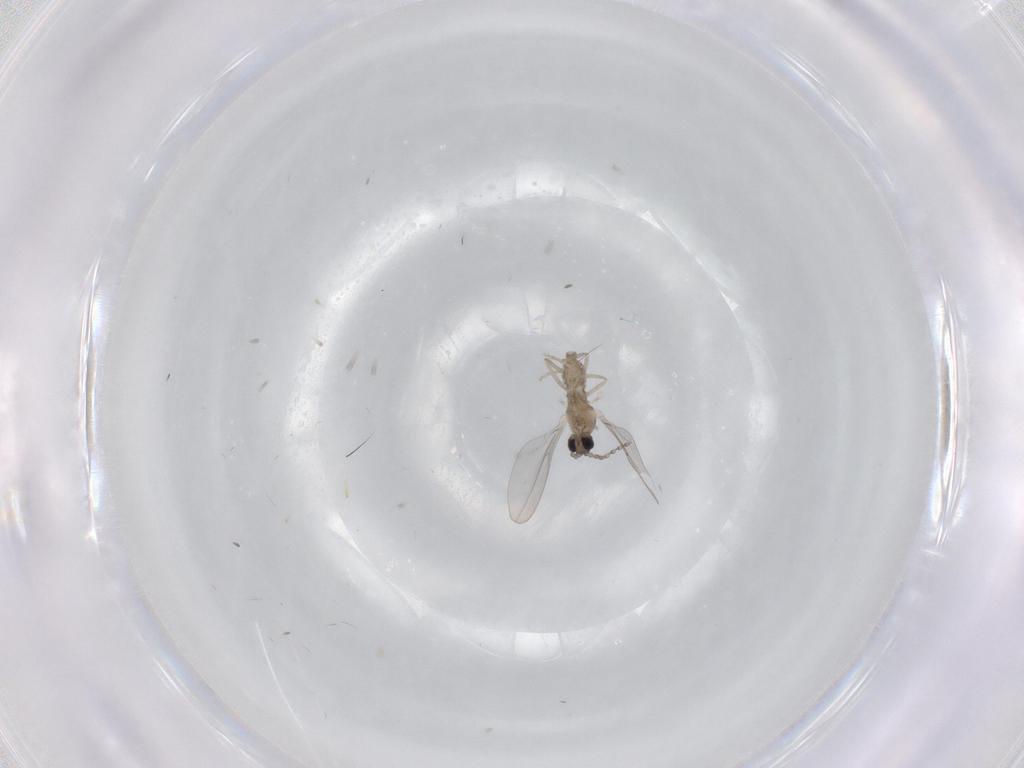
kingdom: Animalia
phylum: Arthropoda
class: Insecta
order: Diptera
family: Cecidomyiidae
